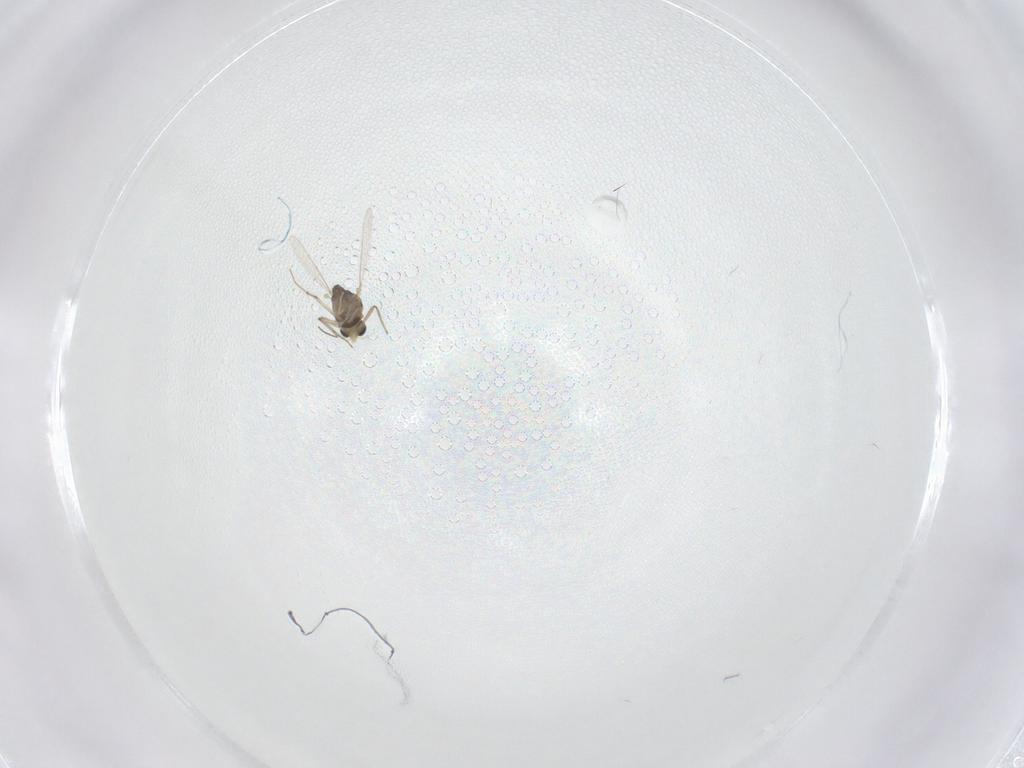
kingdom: Animalia
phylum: Arthropoda
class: Insecta
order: Diptera
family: Chironomidae
